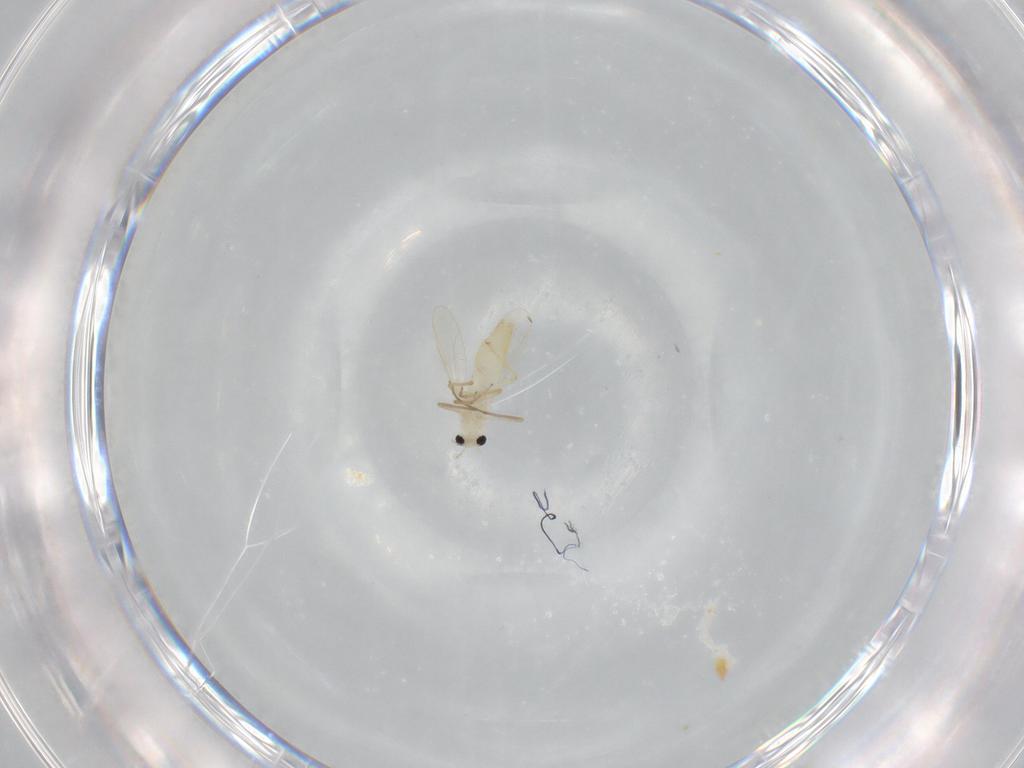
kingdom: Animalia
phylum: Arthropoda
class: Insecta
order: Diptera
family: Chironomidae
